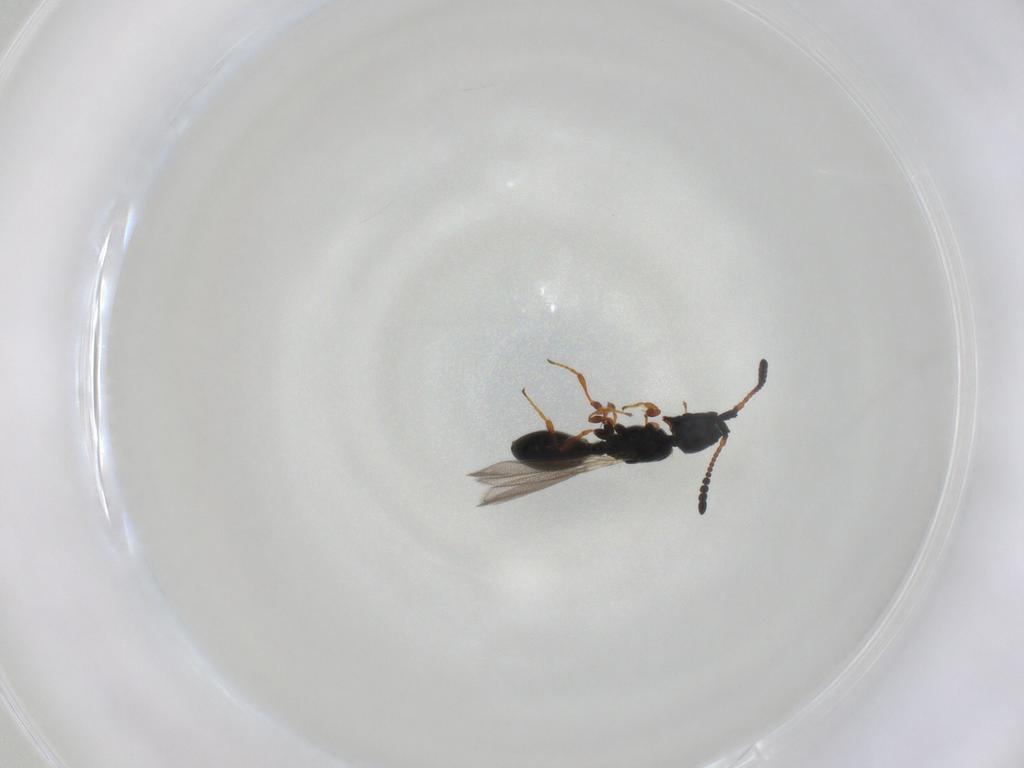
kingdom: Animalia
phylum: Arthropoda
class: Insecta
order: Hymenoptera
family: Diapriidae
